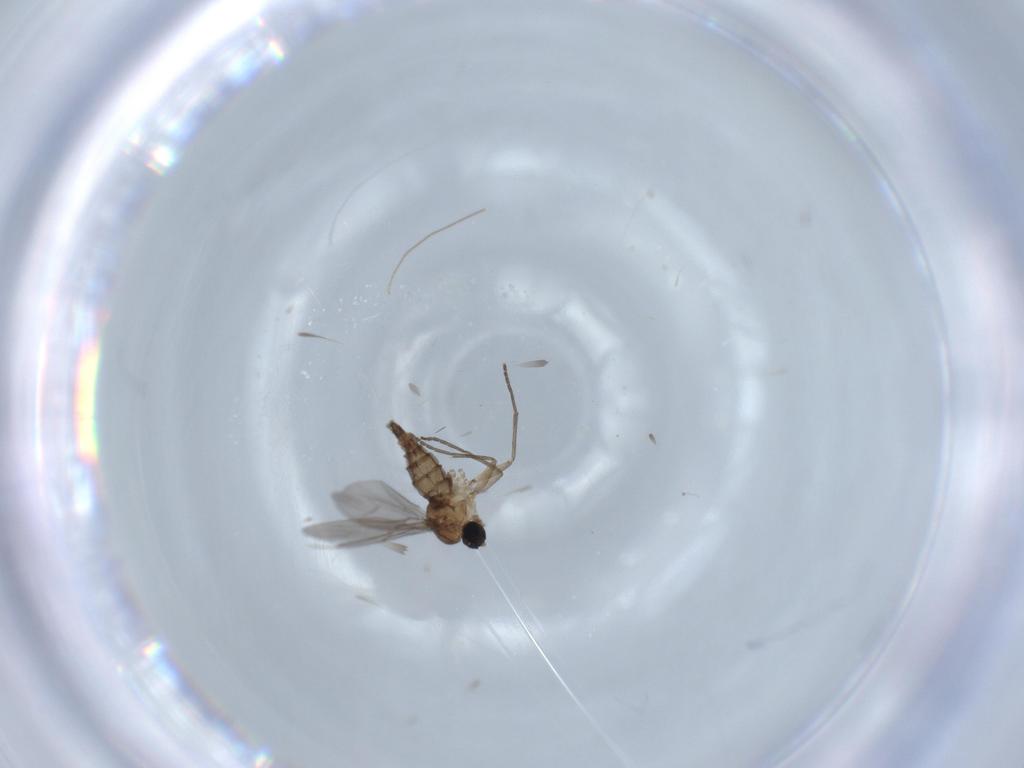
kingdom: Animalia
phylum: Arthropoda
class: Insecta
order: Diptera
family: Sciaridae
